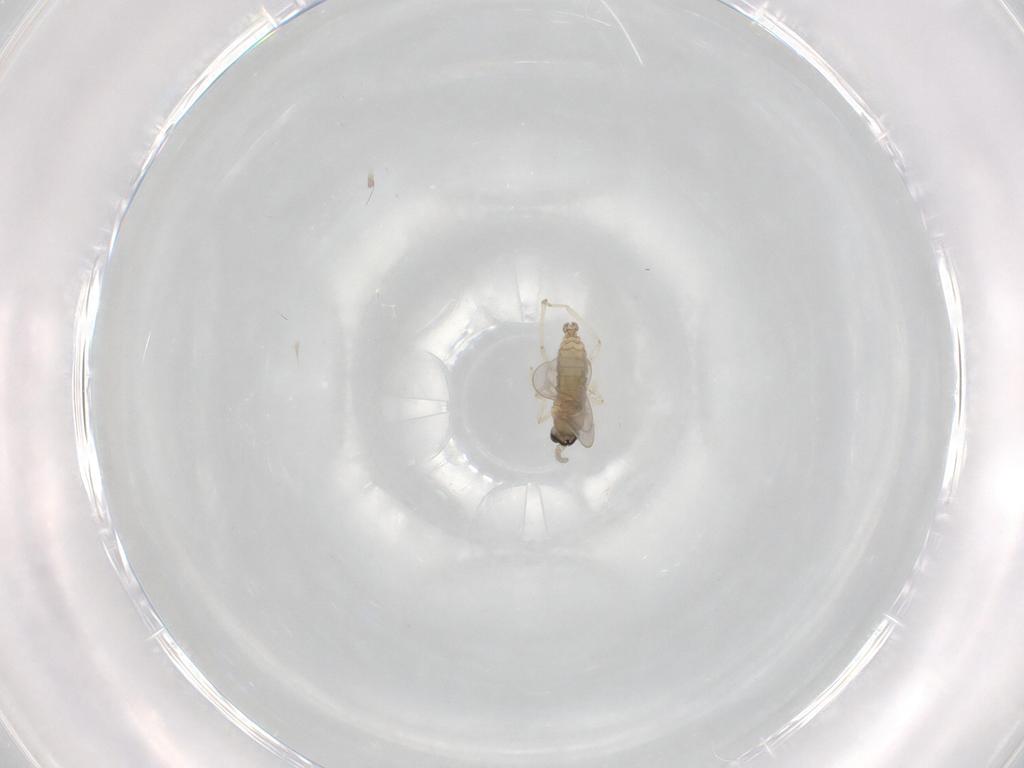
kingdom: Animalia
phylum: Arthropoda
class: Insecta
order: Diptera
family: Cecidomyiidae
